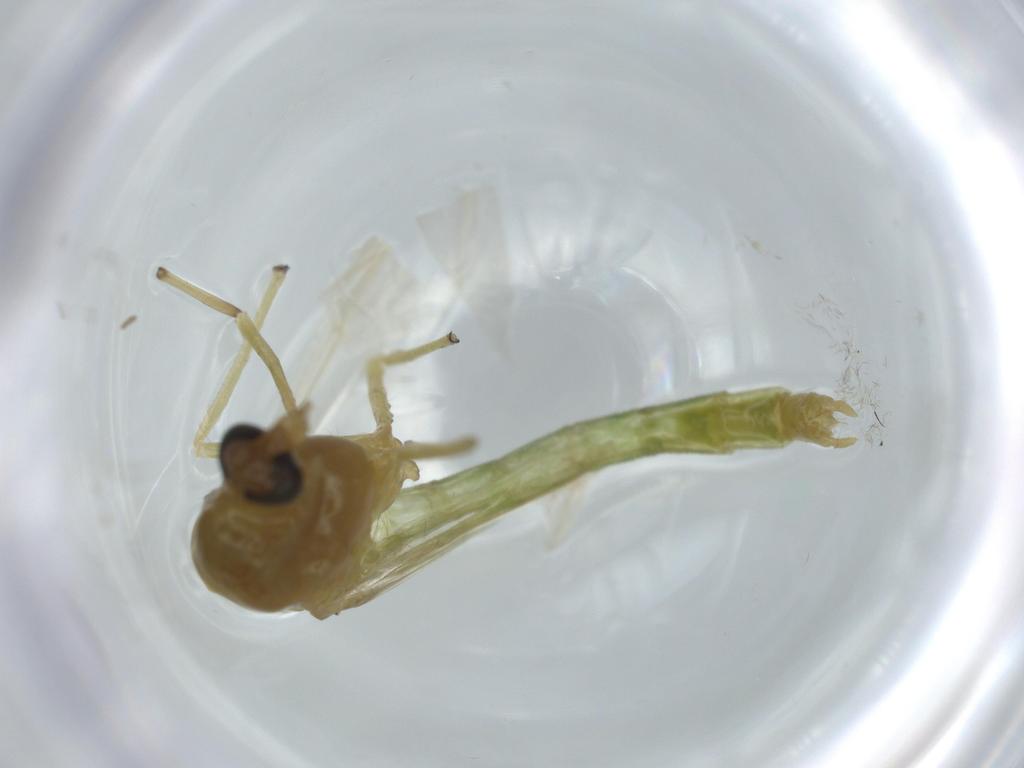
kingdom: Animalia
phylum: Arthropoda
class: Insecta
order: Diptera
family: Chironomidae
